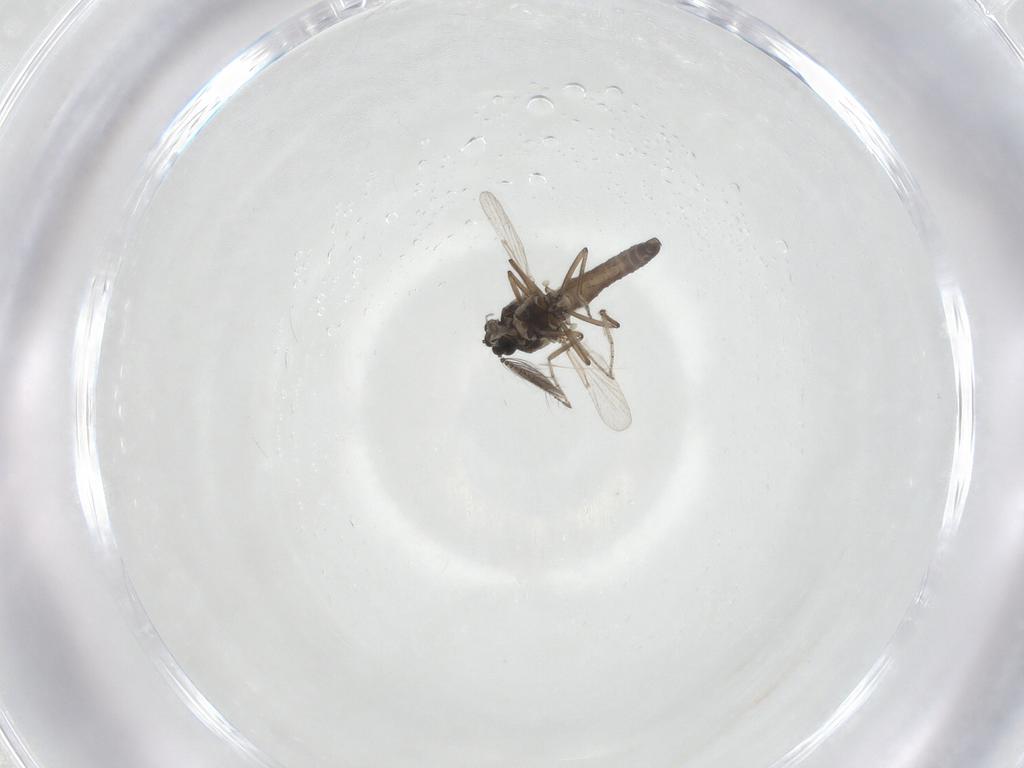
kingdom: Animalia
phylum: Arthropoda
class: Insecta
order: Diptera
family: Ceratopogonidae
